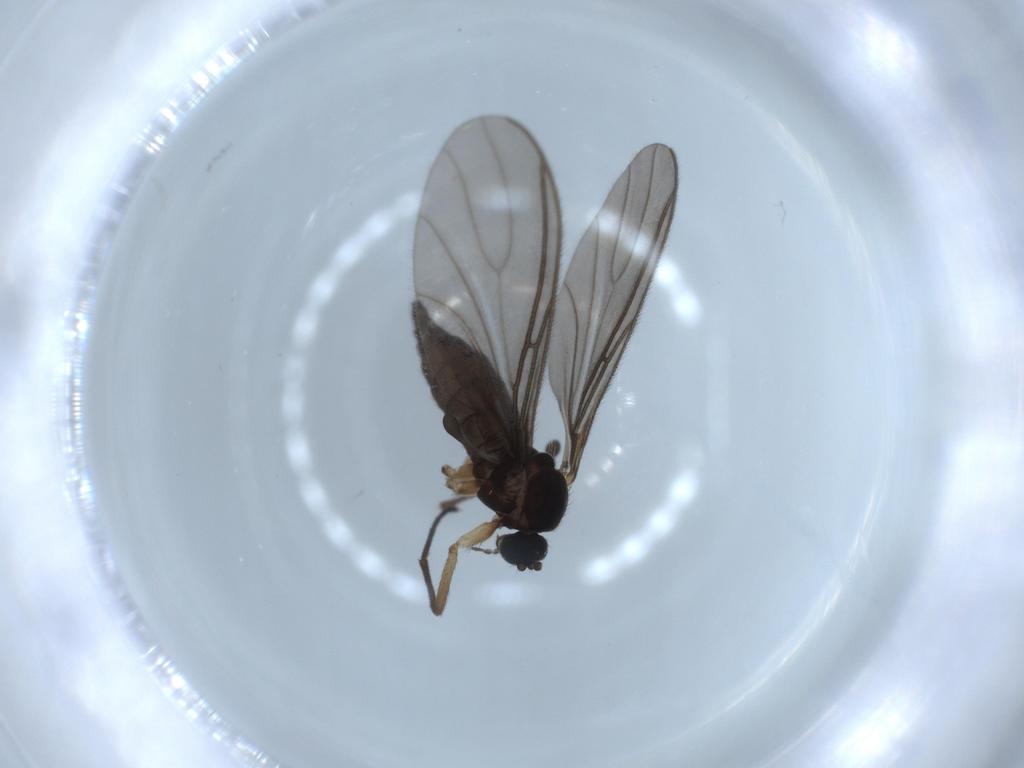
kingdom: Animalia
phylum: Arthropoda
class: Insecta
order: Diptera
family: Sciaridae
